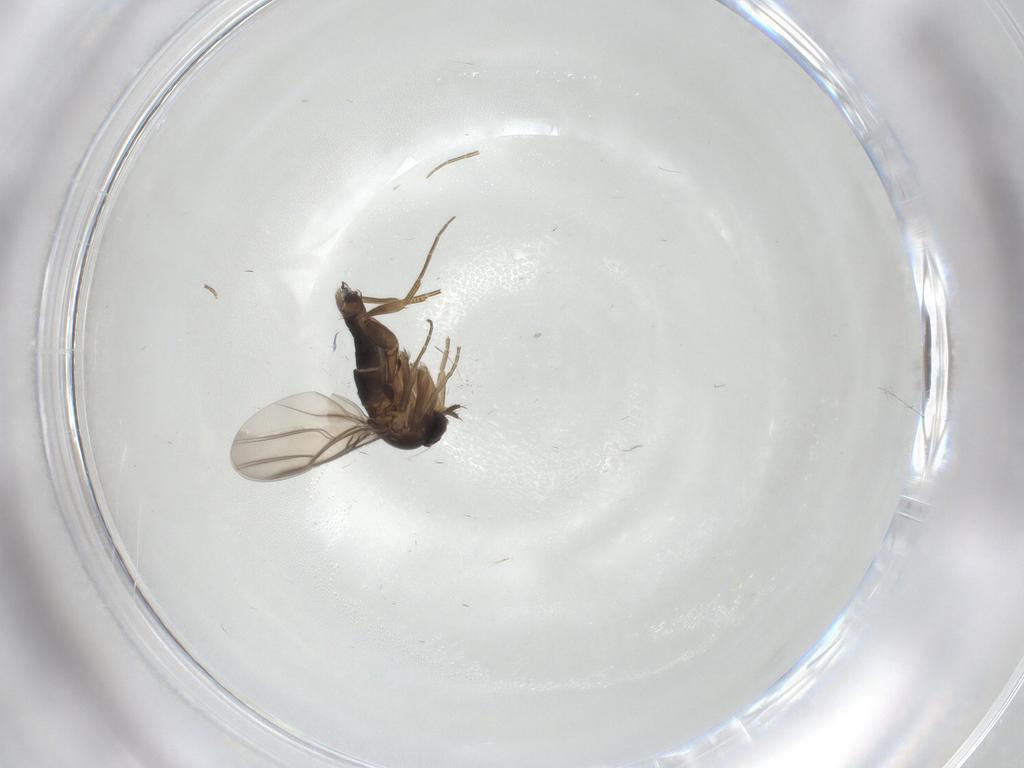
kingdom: Animalia
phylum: Arthropoda
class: Insecta
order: Diptera
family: Phoridae
